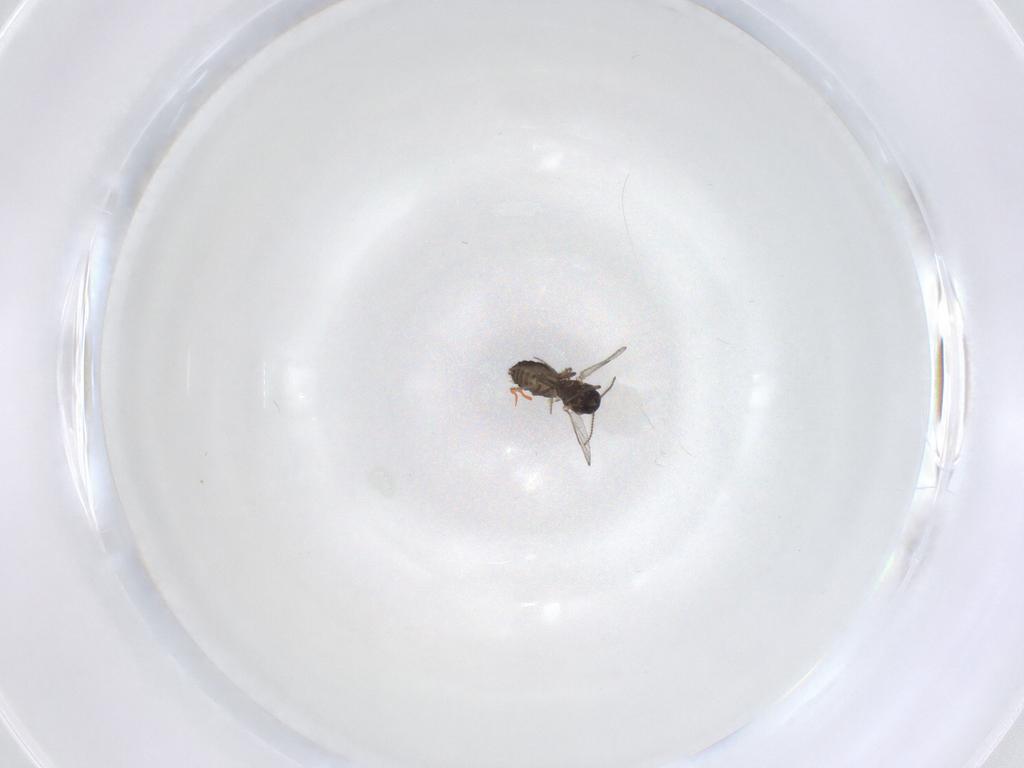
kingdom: Animalia
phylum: Arthropoda
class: Insecta
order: Diptera
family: Ceratopogonidae
